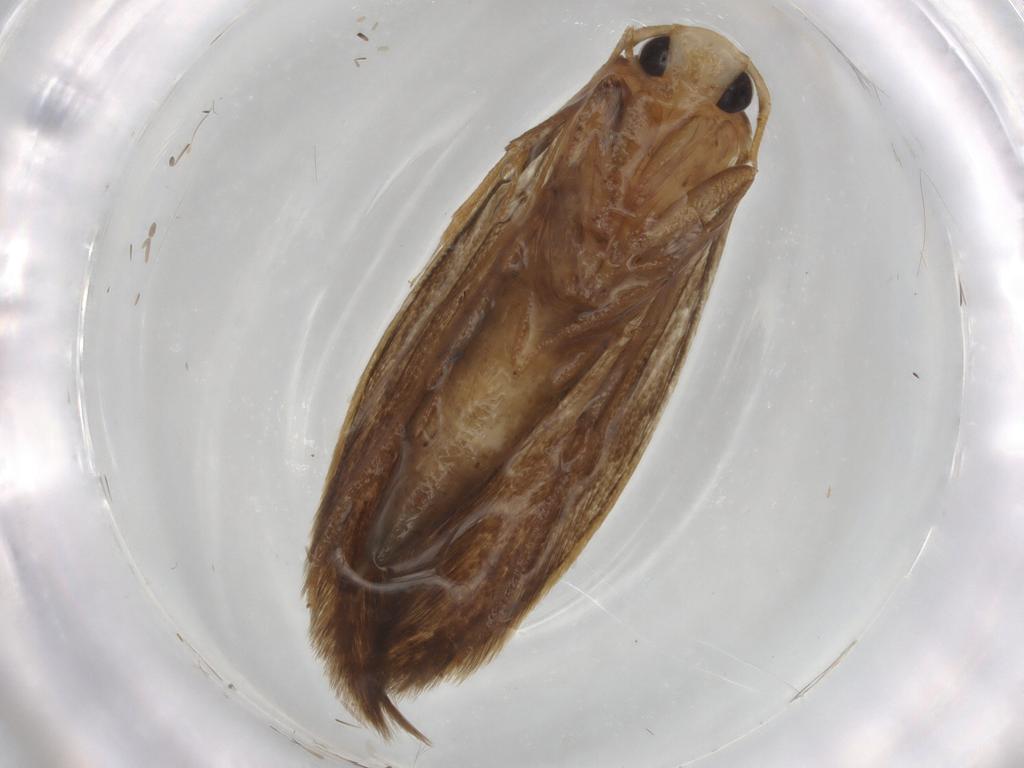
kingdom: Animalia
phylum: Arthropoda
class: Insecta
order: Lepidoptera
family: Tineidae
